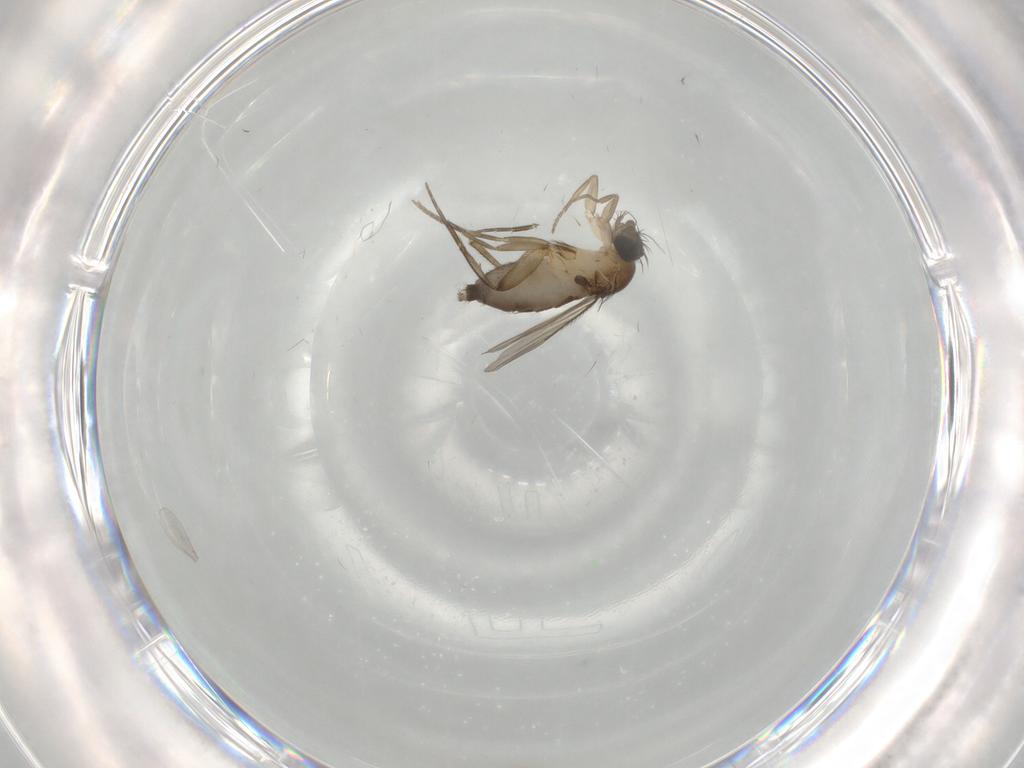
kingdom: Animalia
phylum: Arthropoda
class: Insecta
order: Diptera
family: Phoridae
